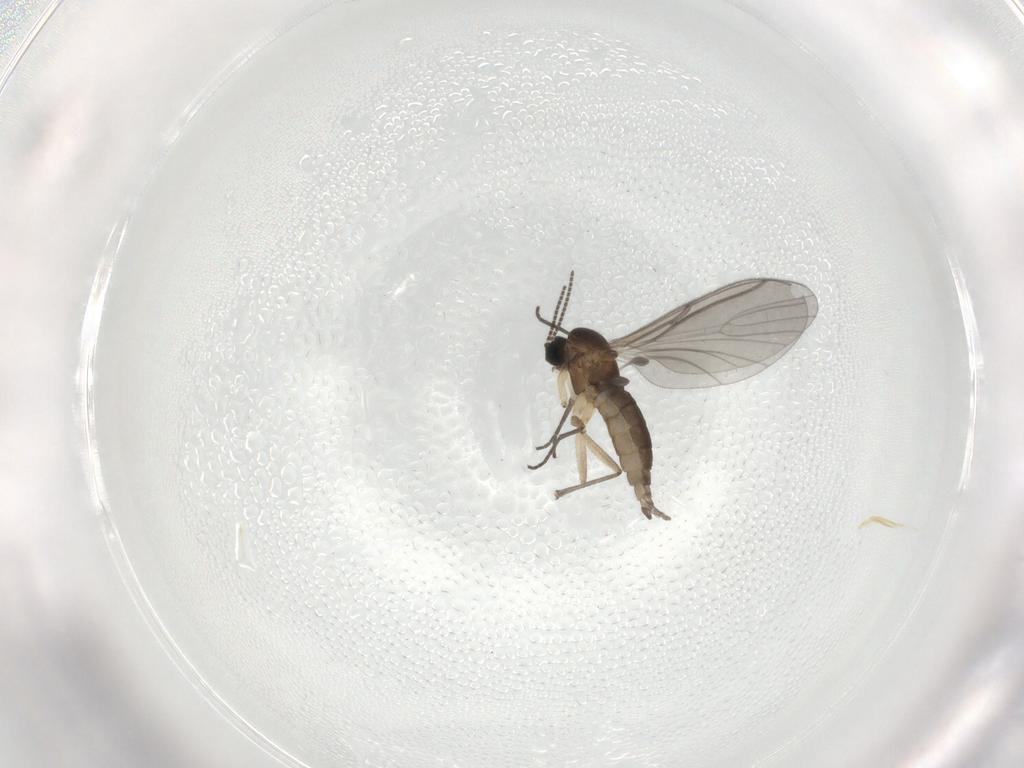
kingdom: Animalia
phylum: Arthropoda
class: Insecta
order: Diptera
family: Sciaridae
